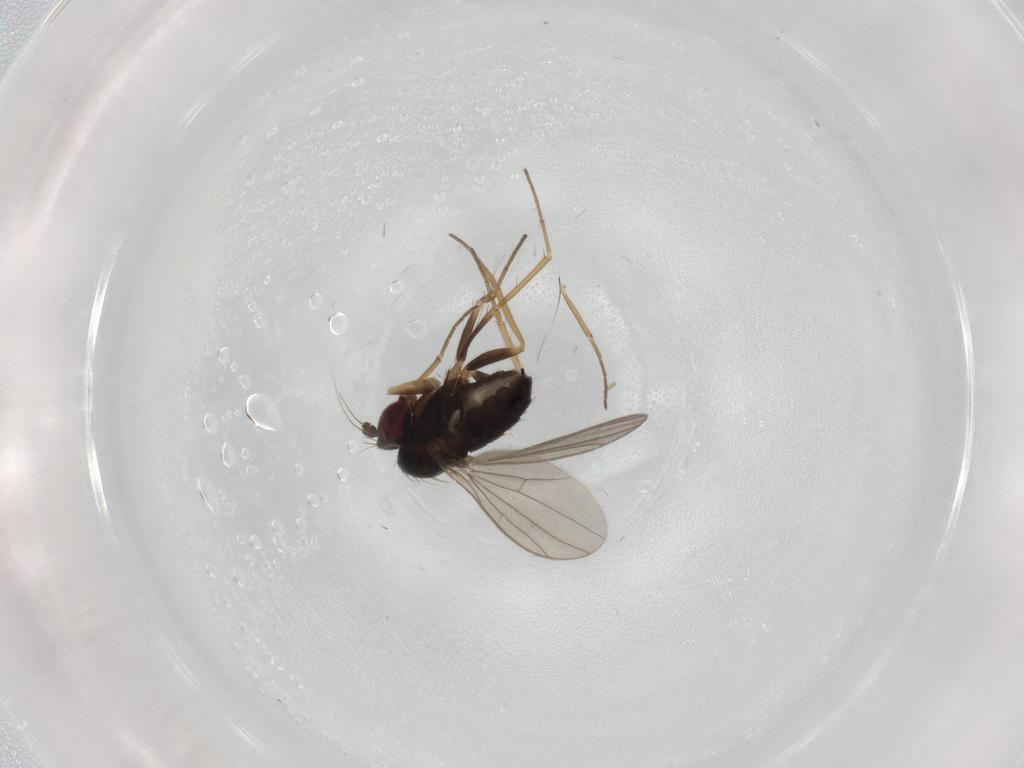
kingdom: Animalia
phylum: Arthropoda
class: Insecta
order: Diptera
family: Dolichopodidae
